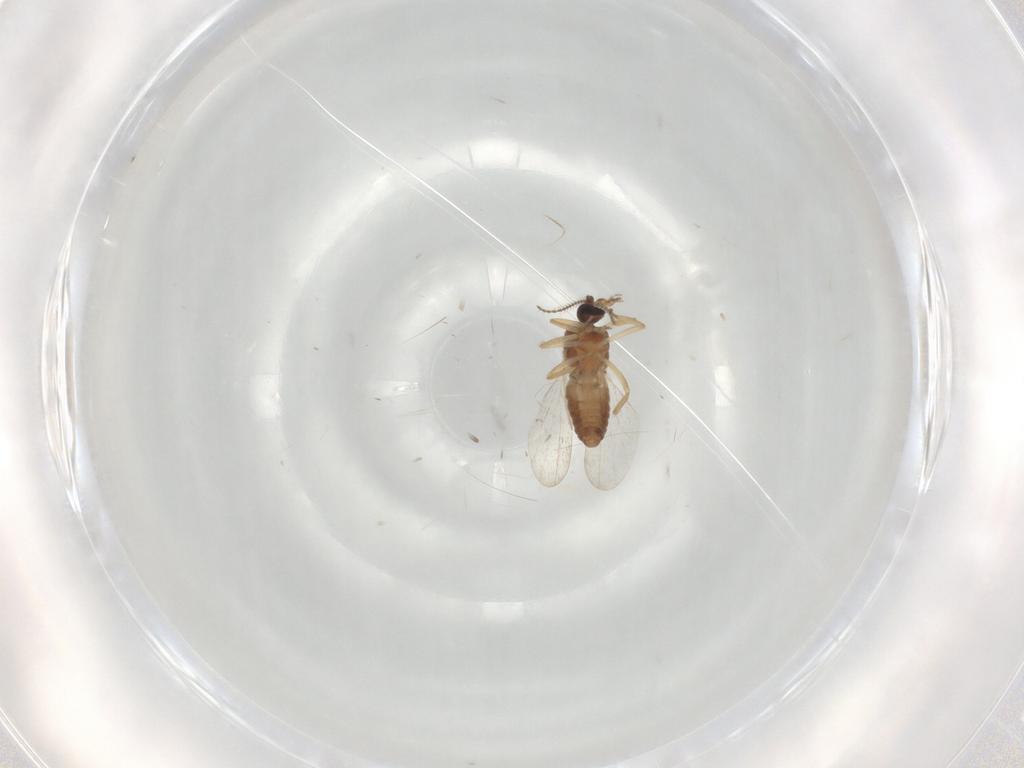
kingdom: Animalia
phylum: Arthropoda
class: Insecta
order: Diptera
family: Ceratopogonidae
